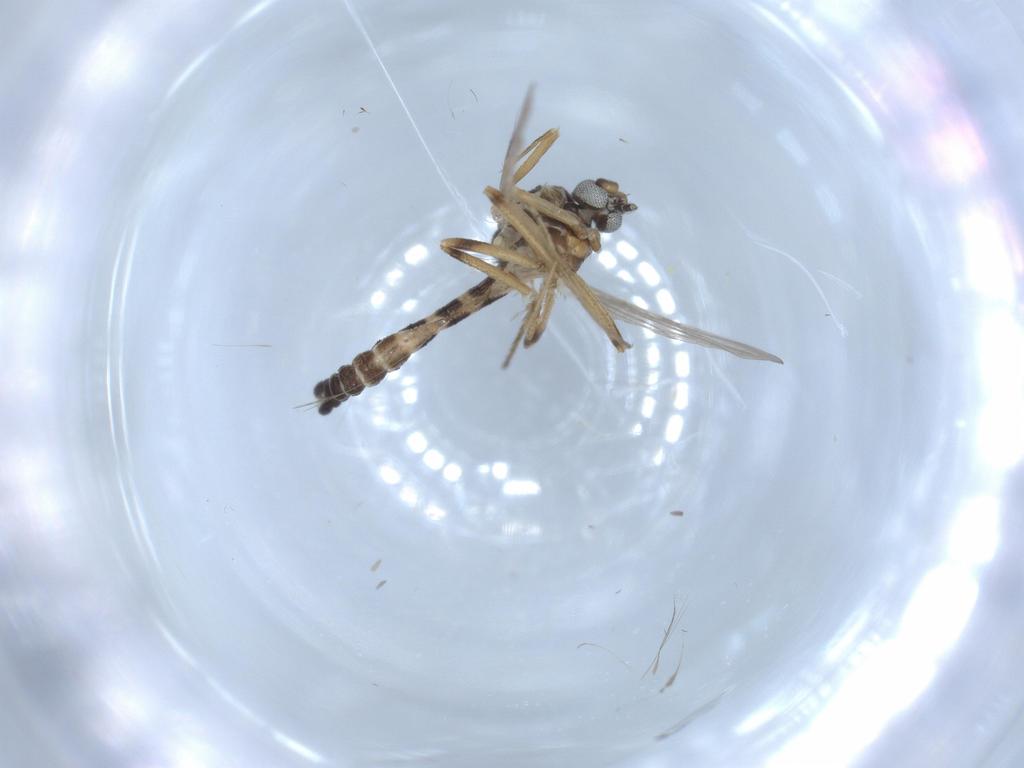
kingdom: Animalia
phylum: Arthropoda
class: Insecta
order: Diptera
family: Ceratopogonidae
